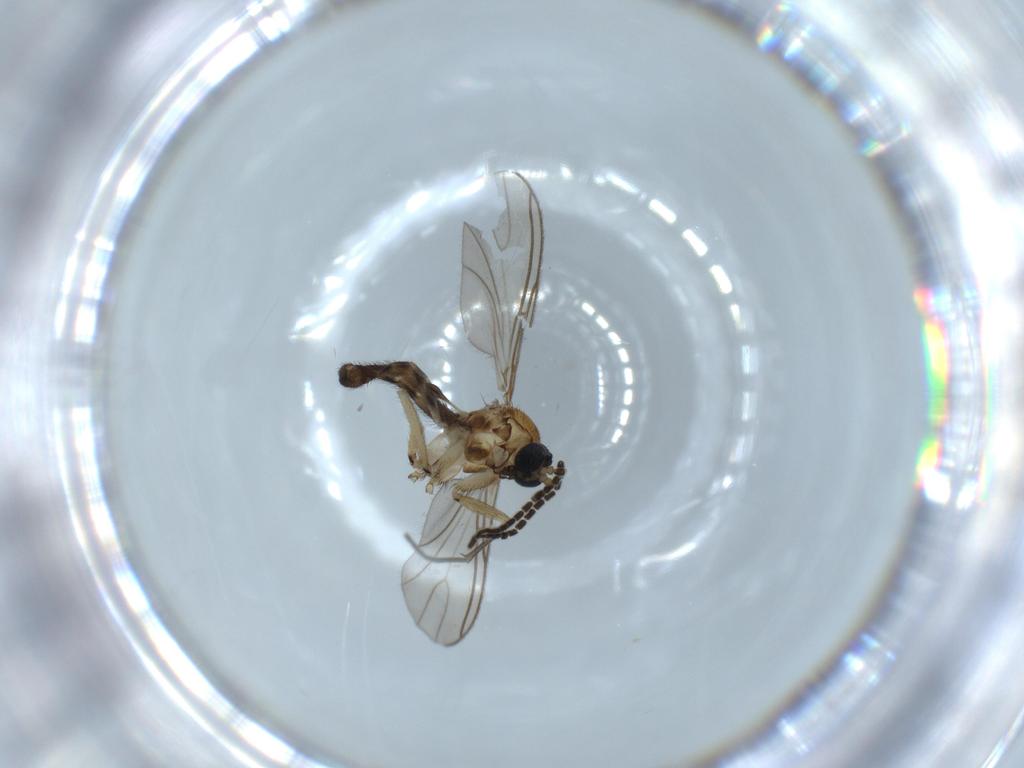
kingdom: Animalia
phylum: Arthropoda
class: Insecta
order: Diptera
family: Sciaridae
